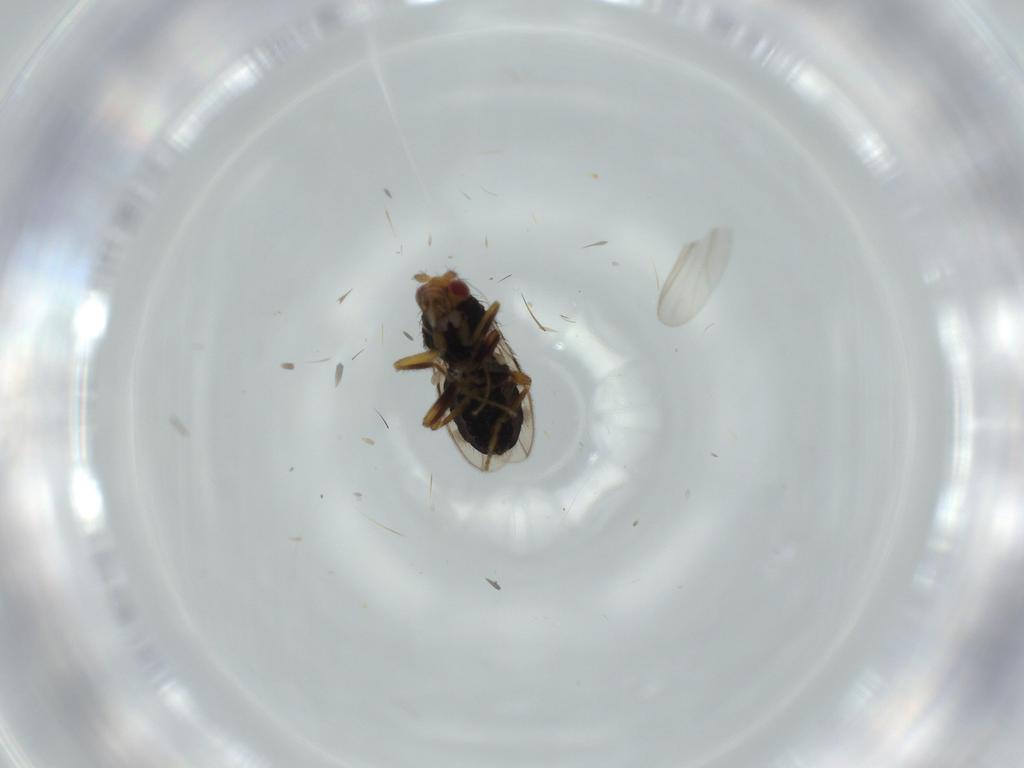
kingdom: Animalia
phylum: Arthropoda
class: Insecta
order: Diptera
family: Sphaeroceridae
